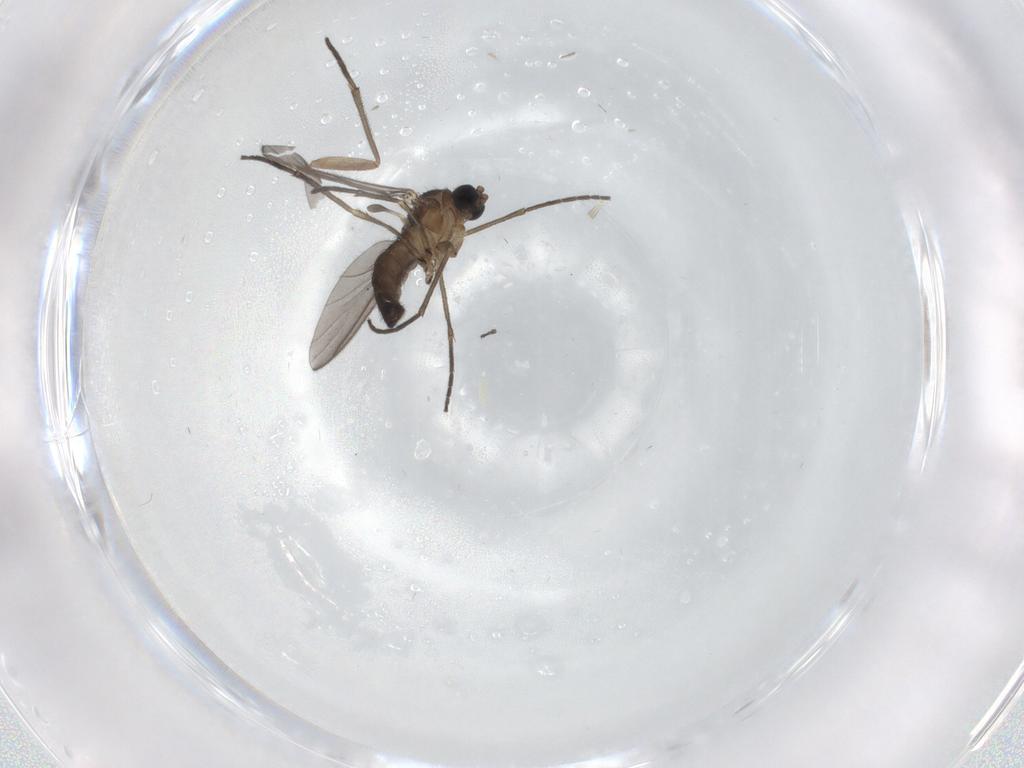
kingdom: Animalia
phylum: Arthropoda
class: Insecta
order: Diptera
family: Sciaridae
